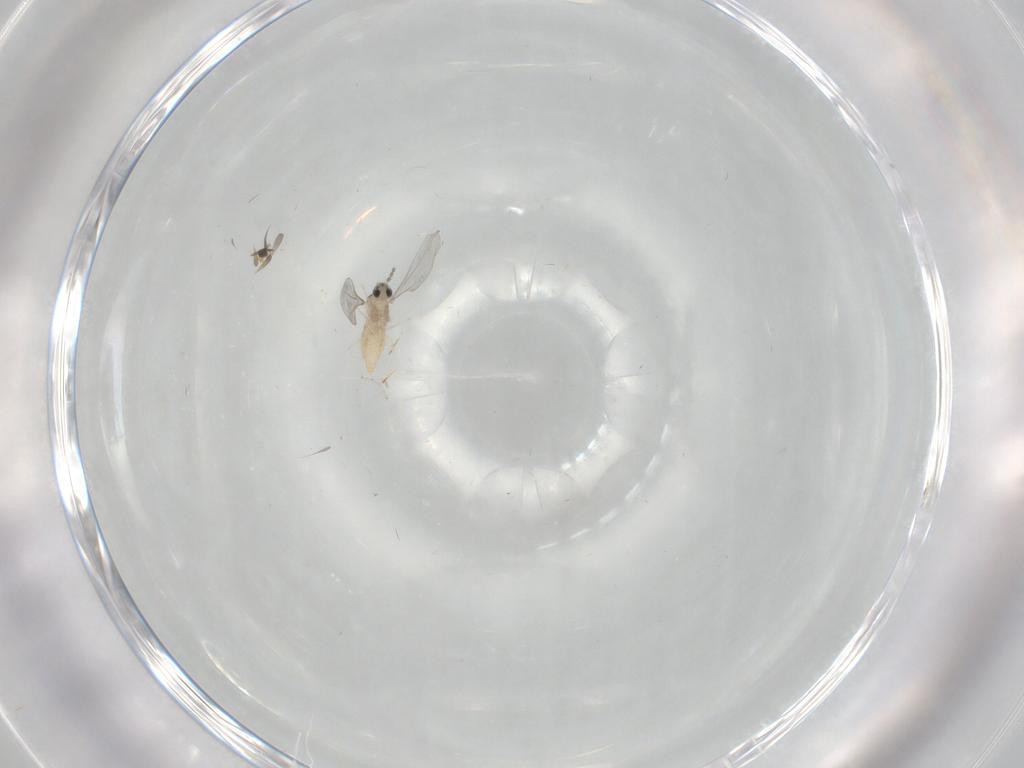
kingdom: Animalia
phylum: Arthropoda
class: Insecta
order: Diptera
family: Cecidomyiidae
